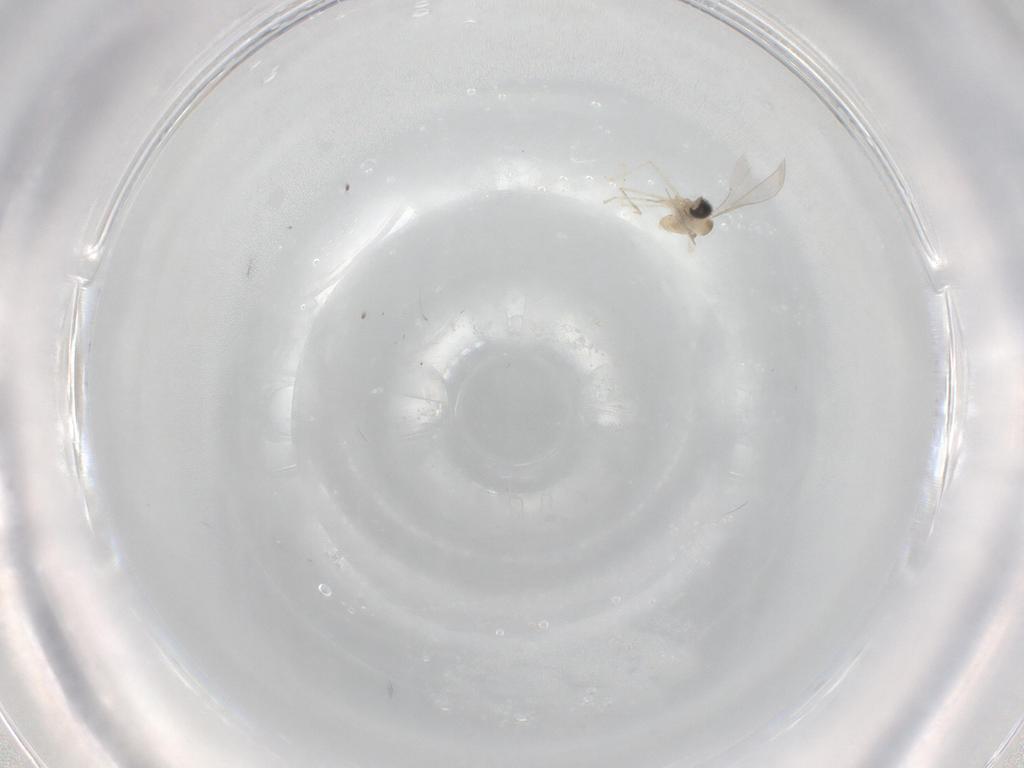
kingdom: Animalia
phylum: Arthropoda
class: Insecta
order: Diptera
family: Cecidomyiidae
